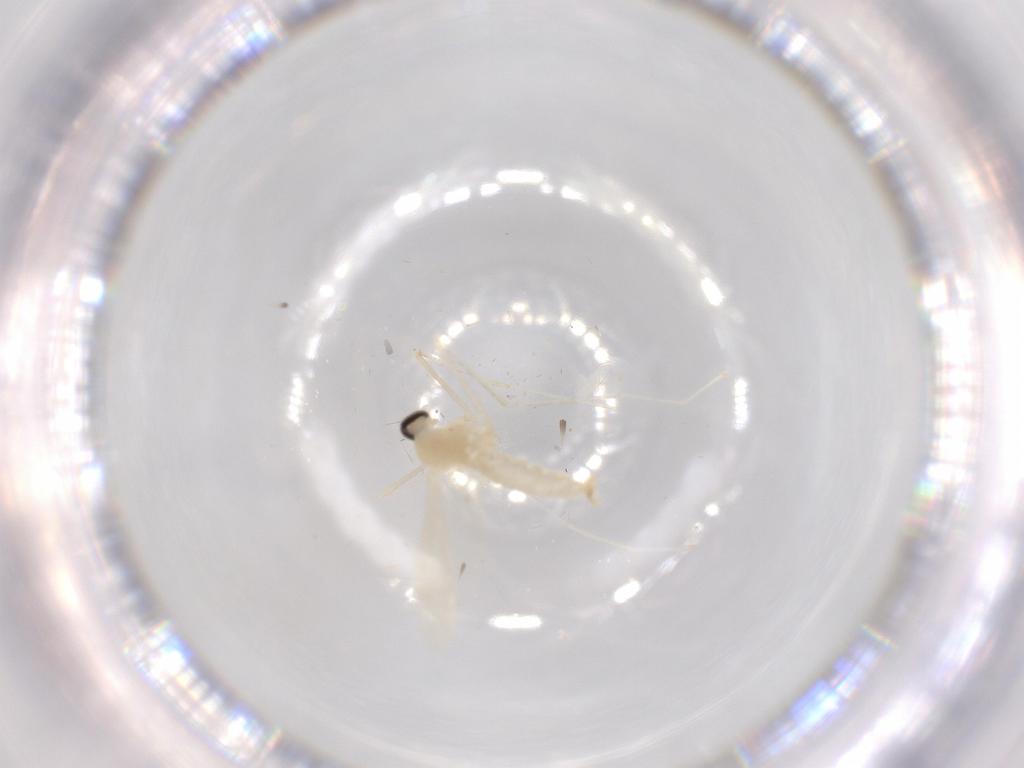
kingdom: Animalia
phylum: Arthropoda
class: Insecta
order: Diptera
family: Cecidomyiidae
